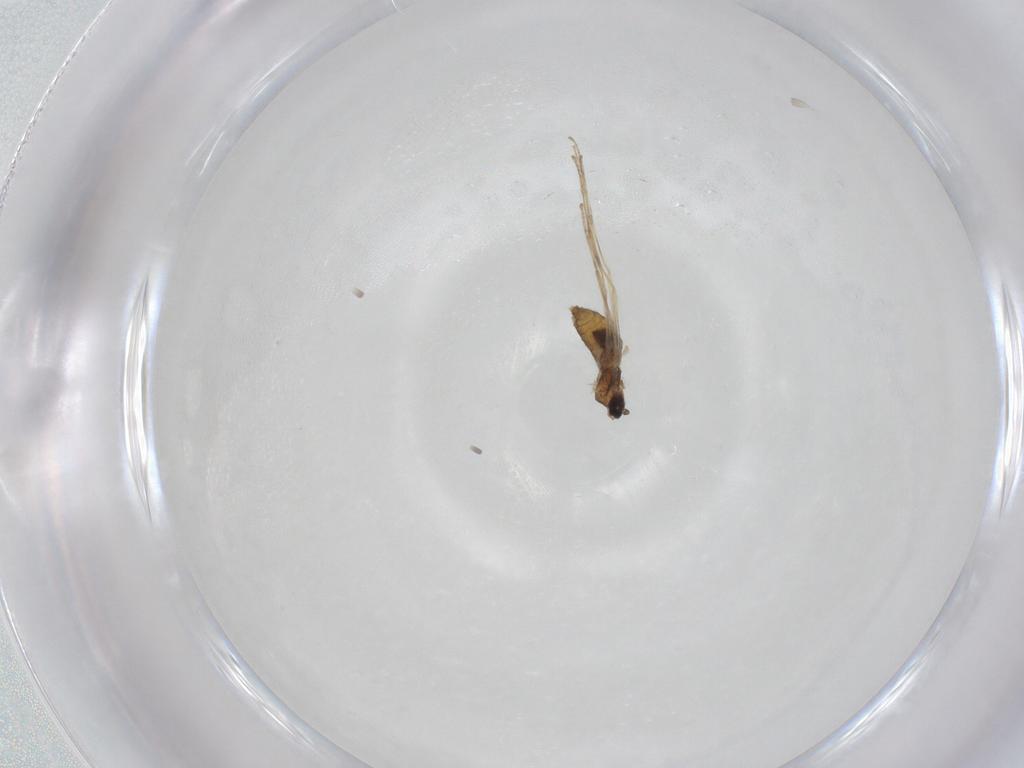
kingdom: Animalia
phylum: Arthropoda
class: Insecta
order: Diptera
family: Cecidomyiidae
